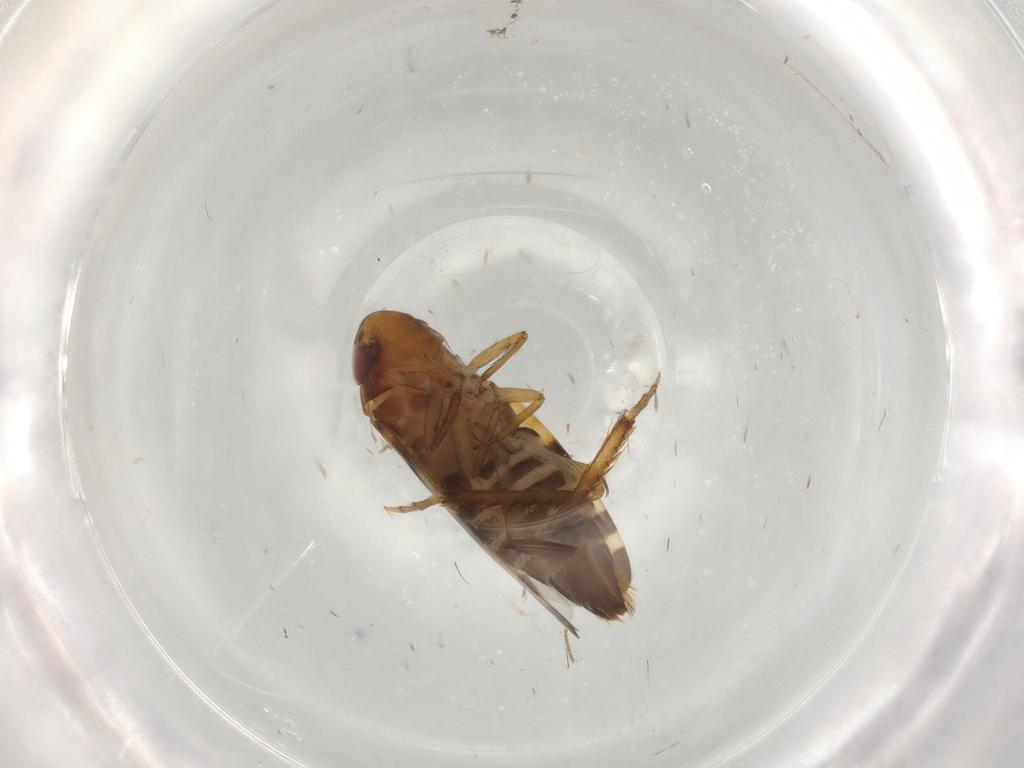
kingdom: Animalia
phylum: Arthropoda
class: Insecta
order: Hemiptera
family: Cicadellidae
